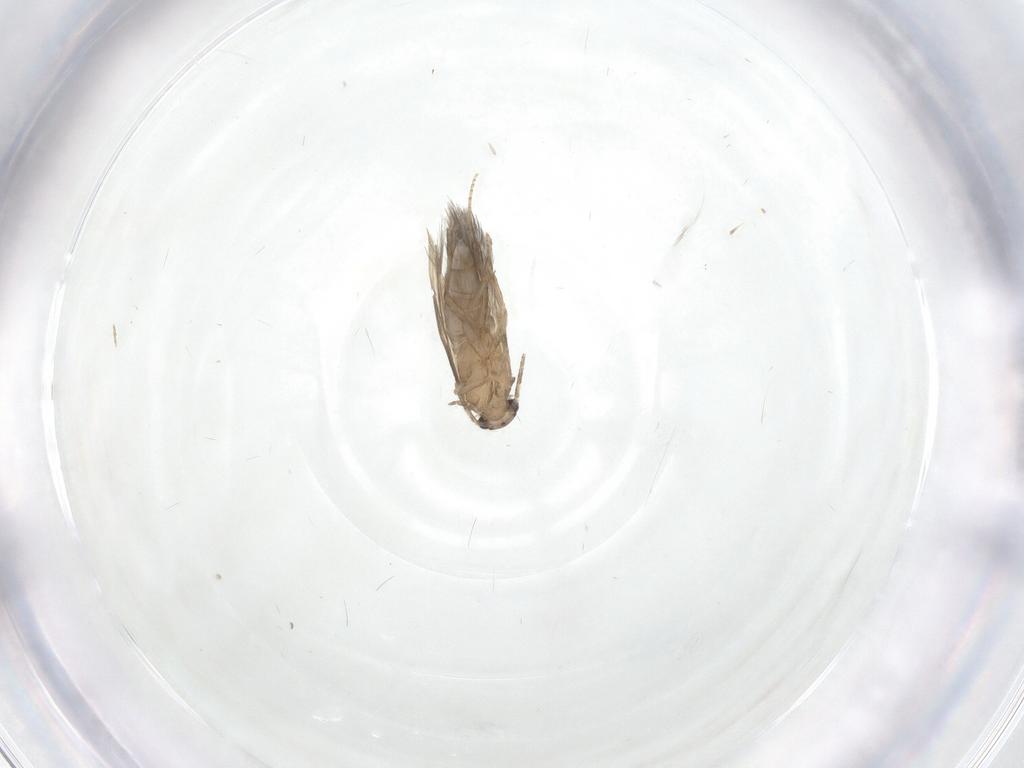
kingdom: Animalia
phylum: Arthropoda
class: Insecta
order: Trichoptera
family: Hydroptilidae
